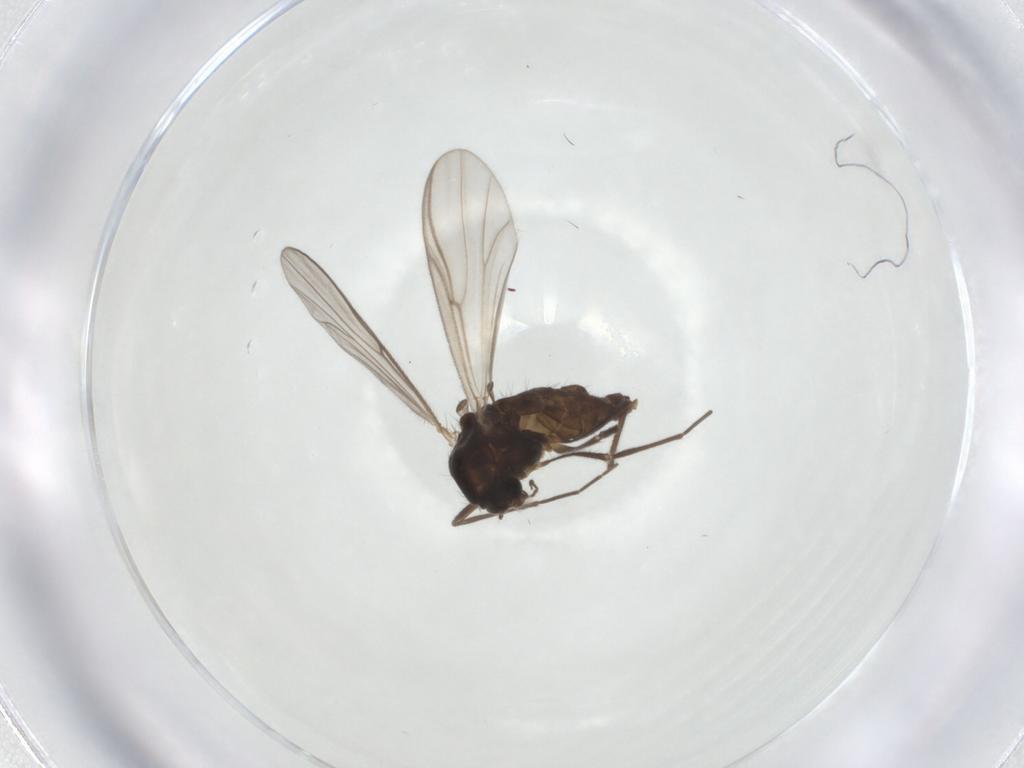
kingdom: Animalia
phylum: Arthropoda
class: Insecta
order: Diptera
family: Chironomidae
